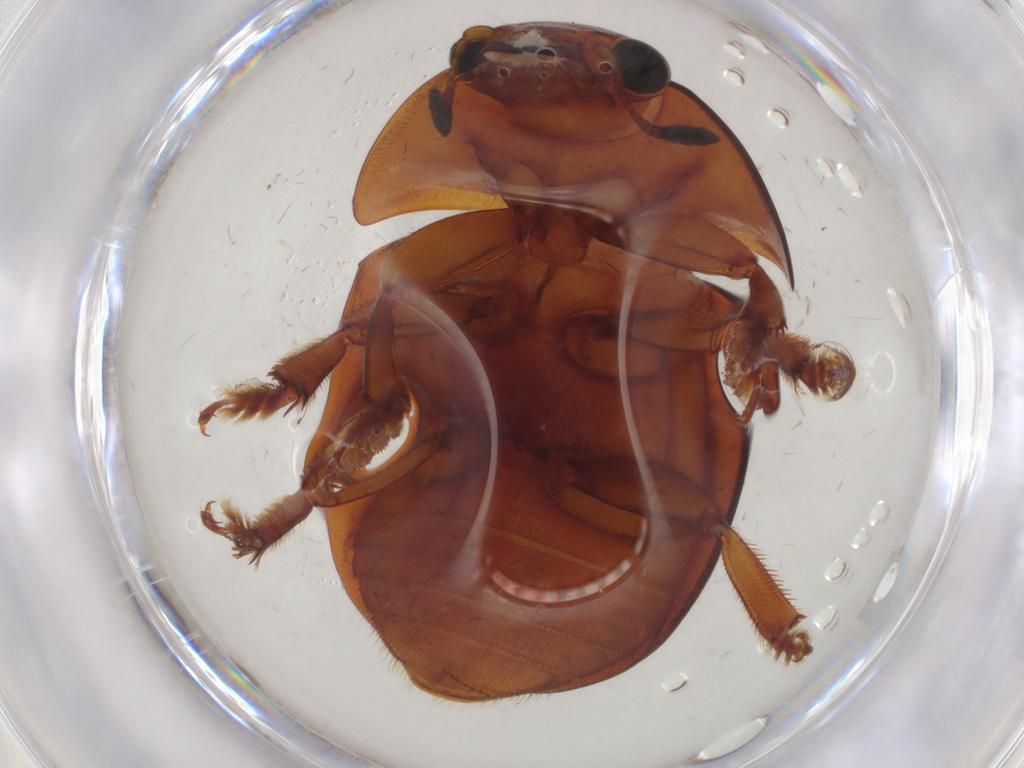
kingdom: Animalia
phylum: Arthropoda
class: Insecta
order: Coleoptera
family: Nitidulidae
